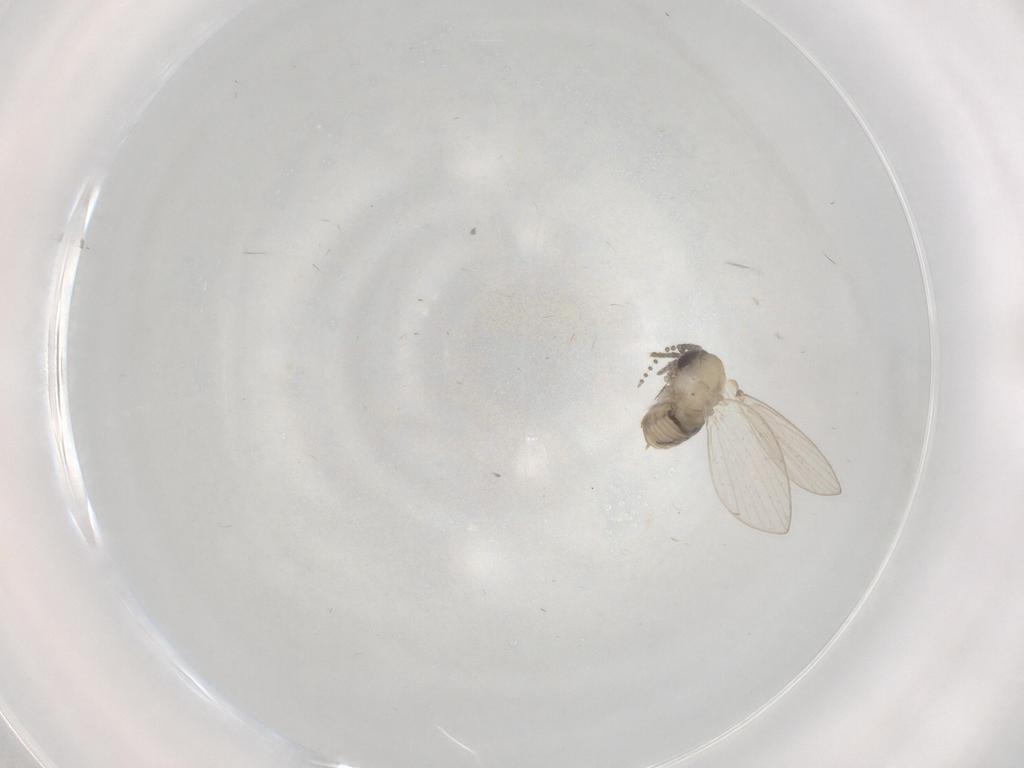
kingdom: Animalia
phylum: Arthropoda
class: Insecta
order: Diptera
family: Psychodidae
